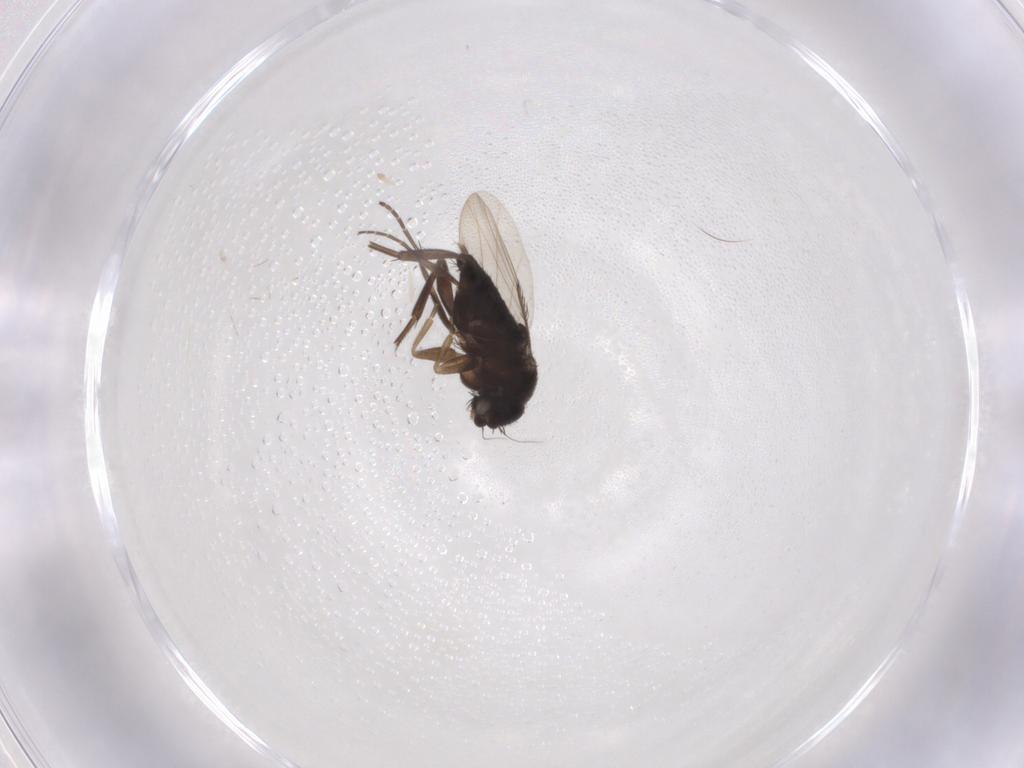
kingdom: Animalia
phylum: Arthropoda
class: Insecta
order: Diptera
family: Phoridae
